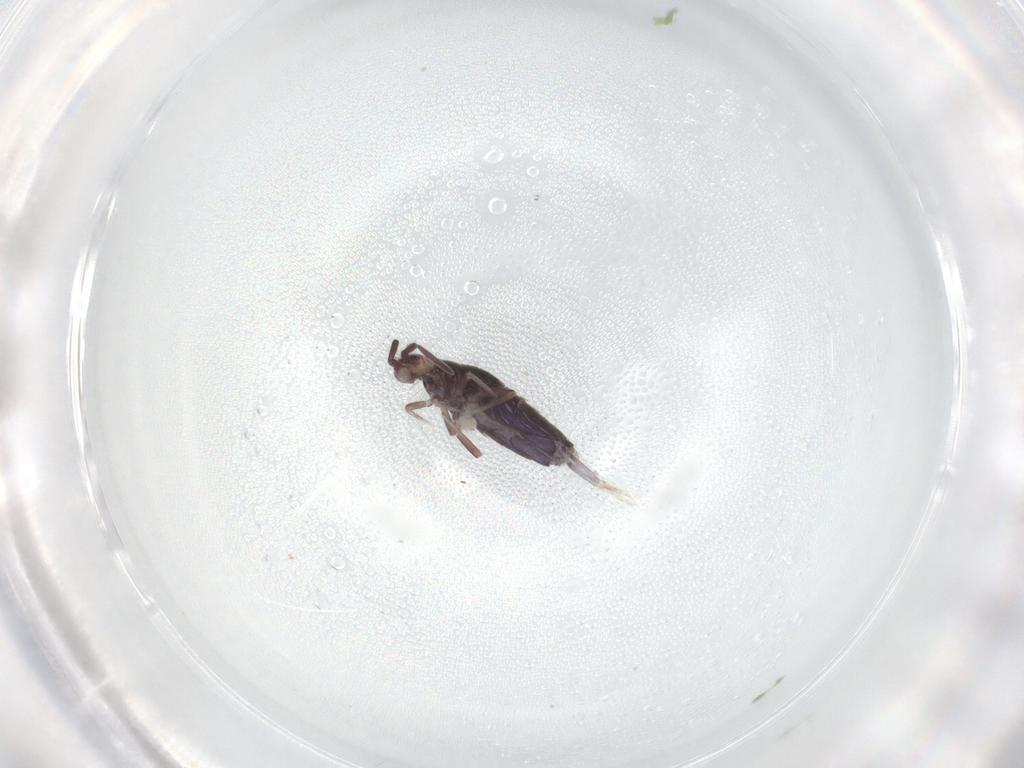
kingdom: Animalia
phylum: Arthropoda
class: Collembola
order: Entomobryomorpha
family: Entomobryidae
